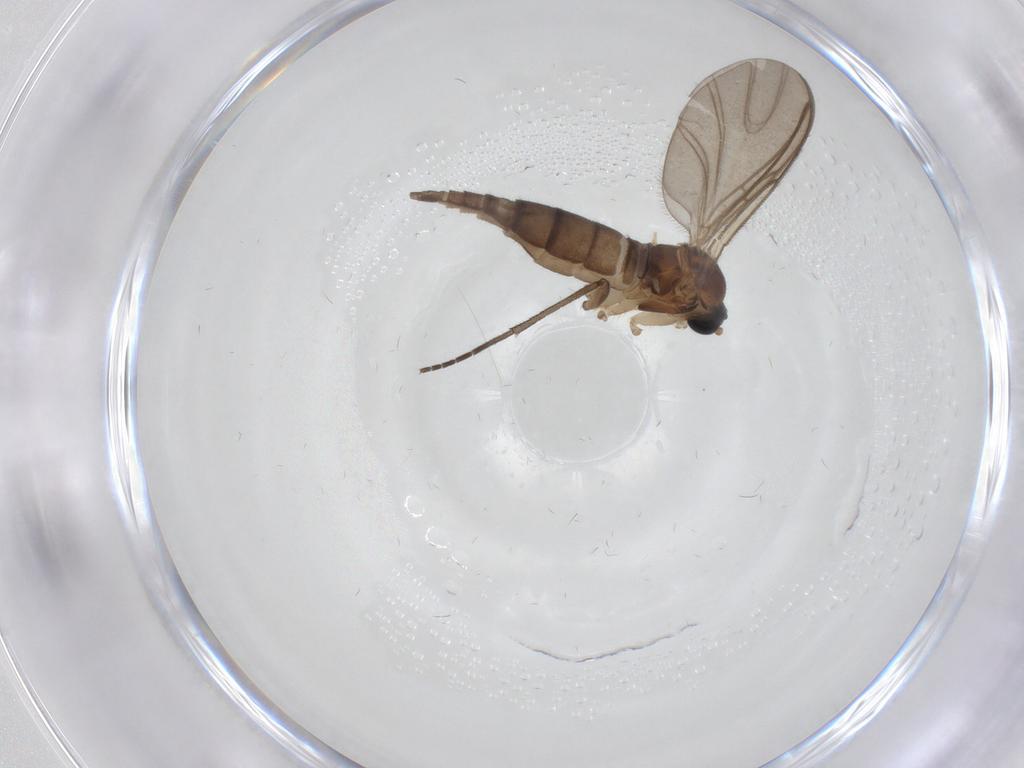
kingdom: Animalia
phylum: Arthropoda
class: Insecta
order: Diptera
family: Sciaridae
